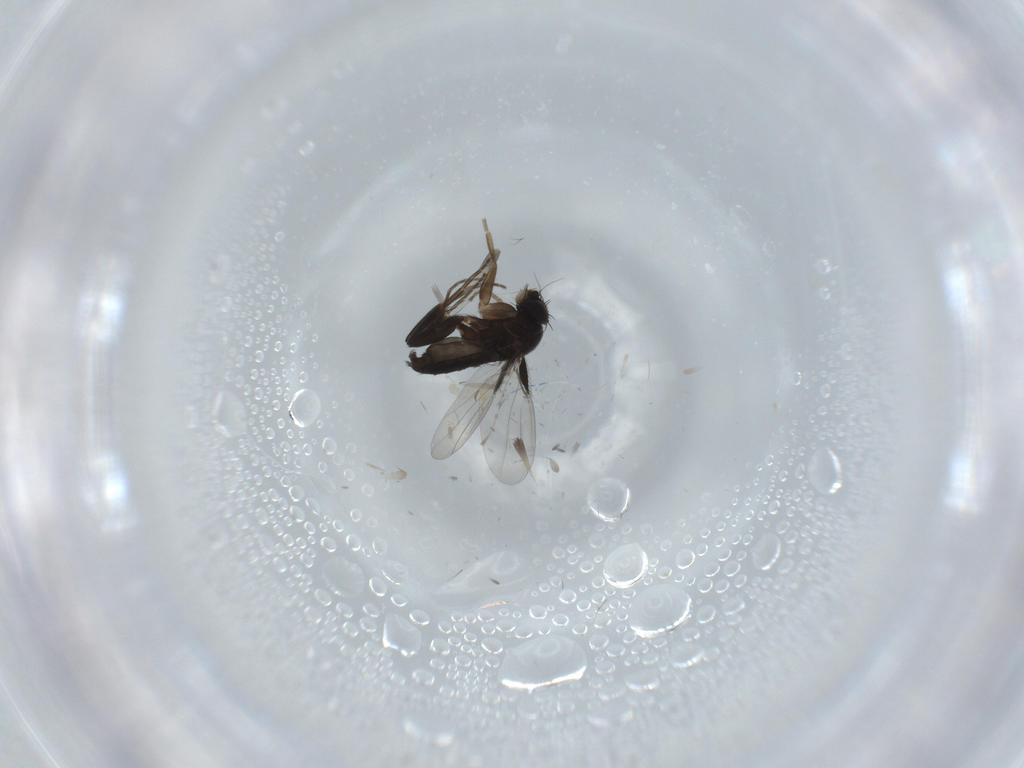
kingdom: Animalia
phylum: Arthropoda
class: Insecta
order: Diptera
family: Phoridae
